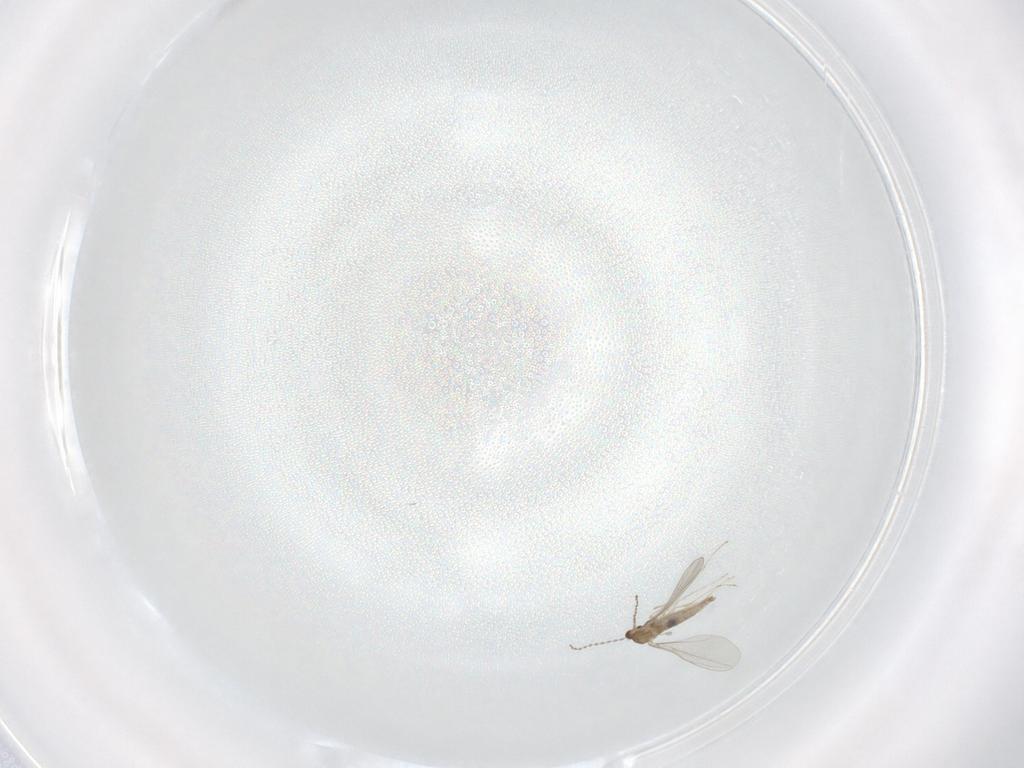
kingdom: Animalia
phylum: Arthropoda
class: Insecta
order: Diptera
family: Cecidomyiidae
